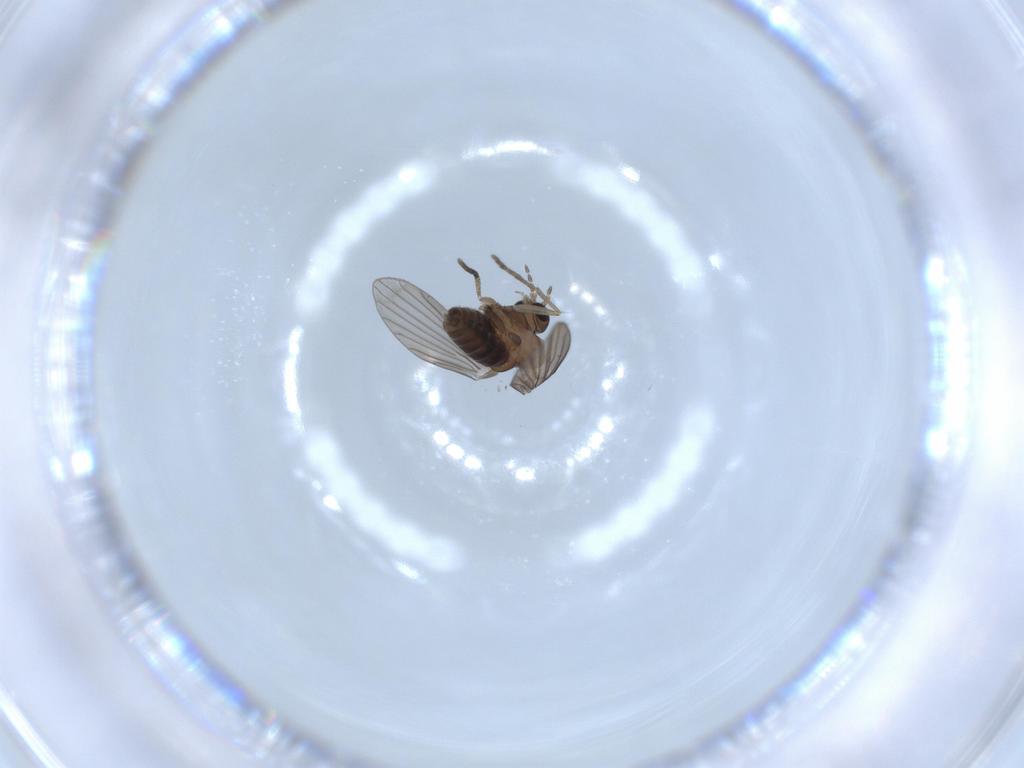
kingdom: Animalia
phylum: Arthropoda
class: Insecta
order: Diptera
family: Psychodidae
